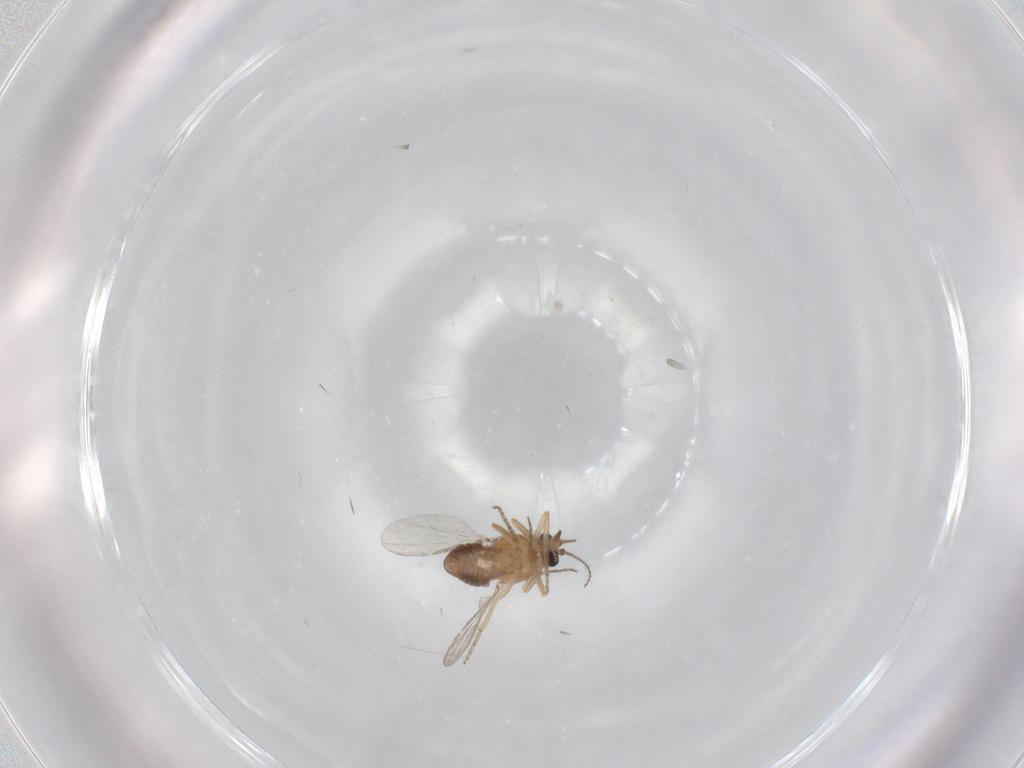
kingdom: Animalia
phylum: Arthropoda
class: Insecta
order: Diptera
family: Ceratopogonidae
